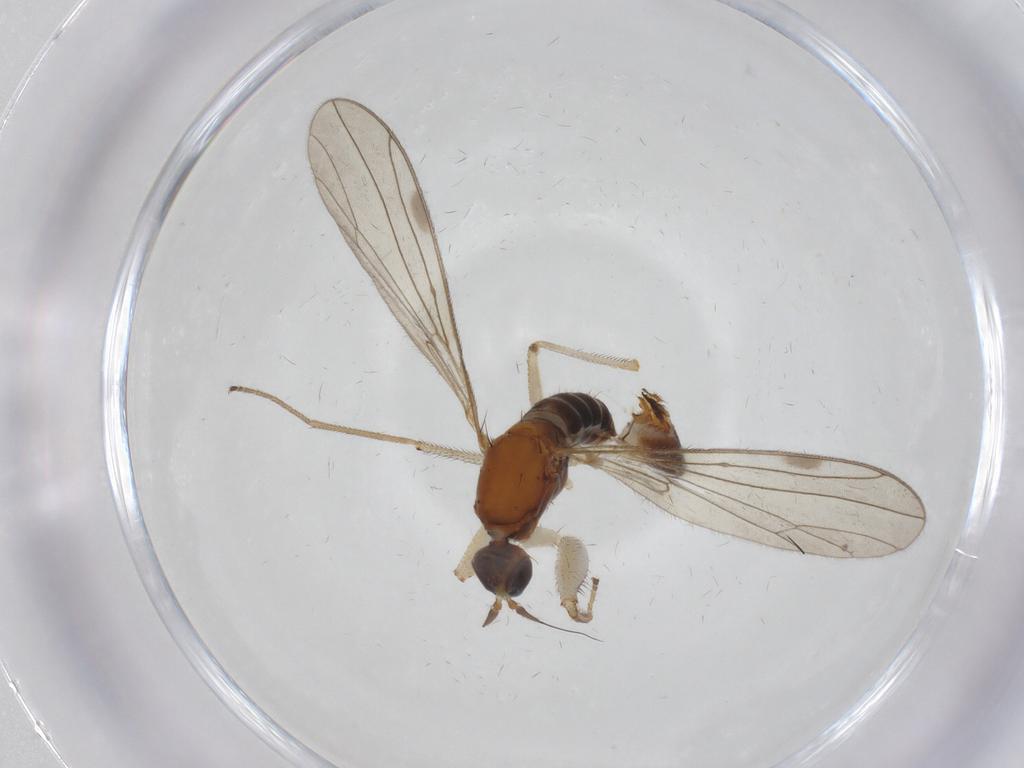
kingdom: Animalia
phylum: Arthropoda
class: Insecta
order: Diptera
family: Empididae
